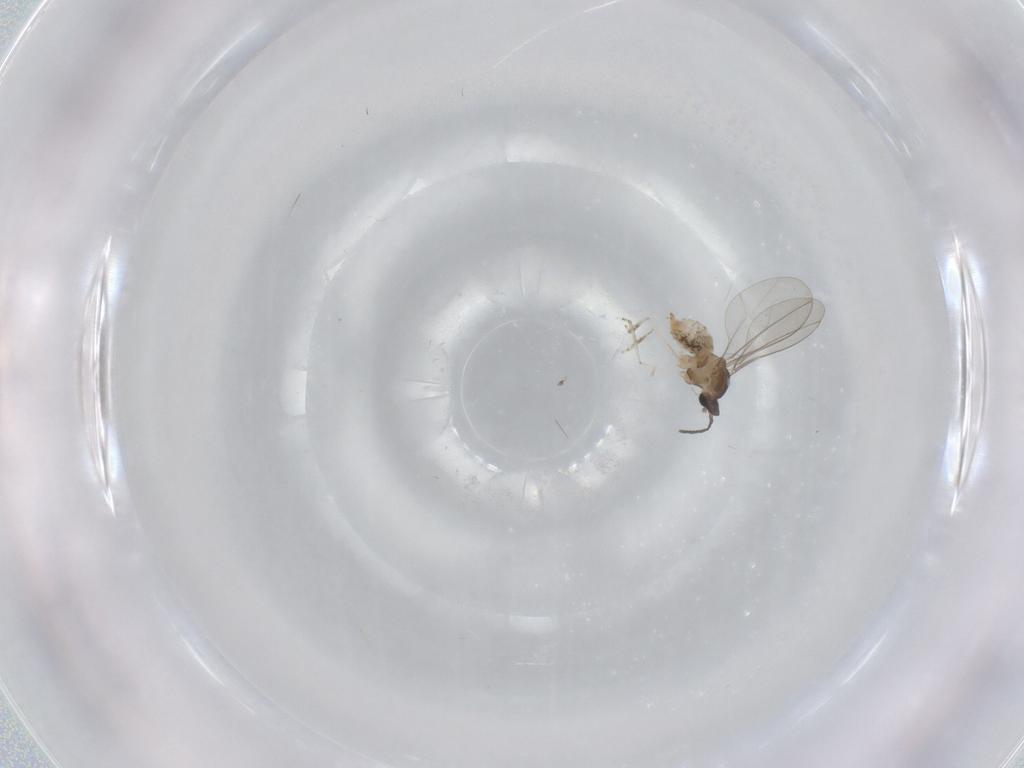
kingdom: Animalia
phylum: Arthropoda
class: Insecta
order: Diptera
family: Cecidomyiidae
